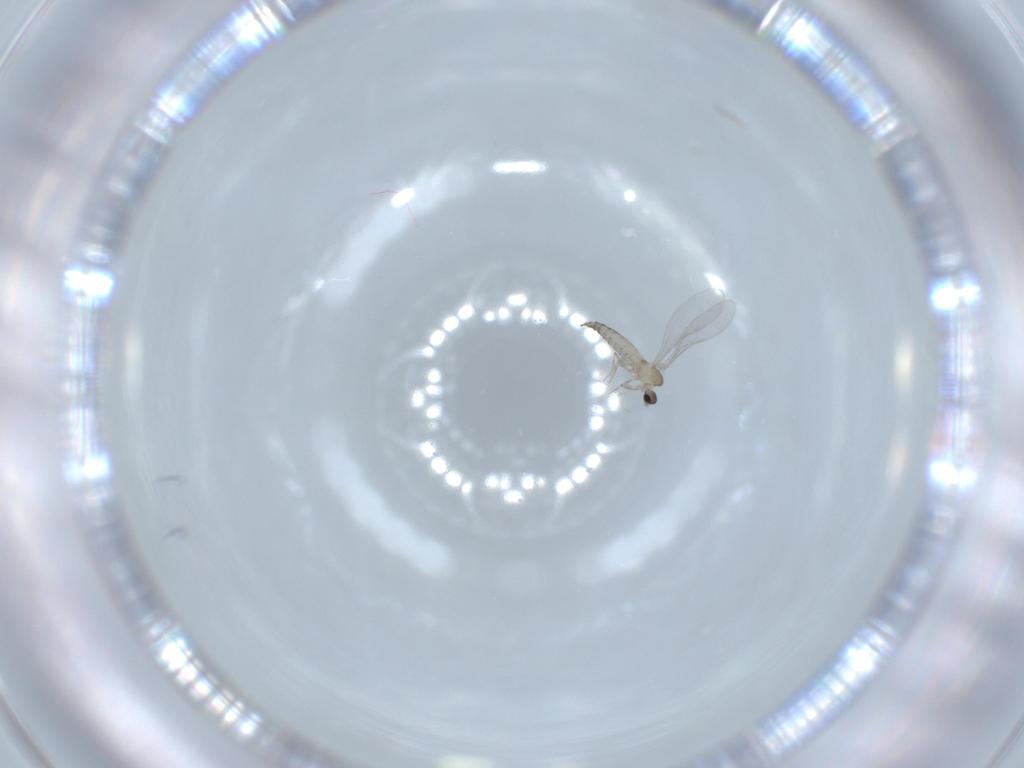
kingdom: Animalia
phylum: Arthropoda
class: Insecta
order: Diptera
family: Cecidomyiidae
